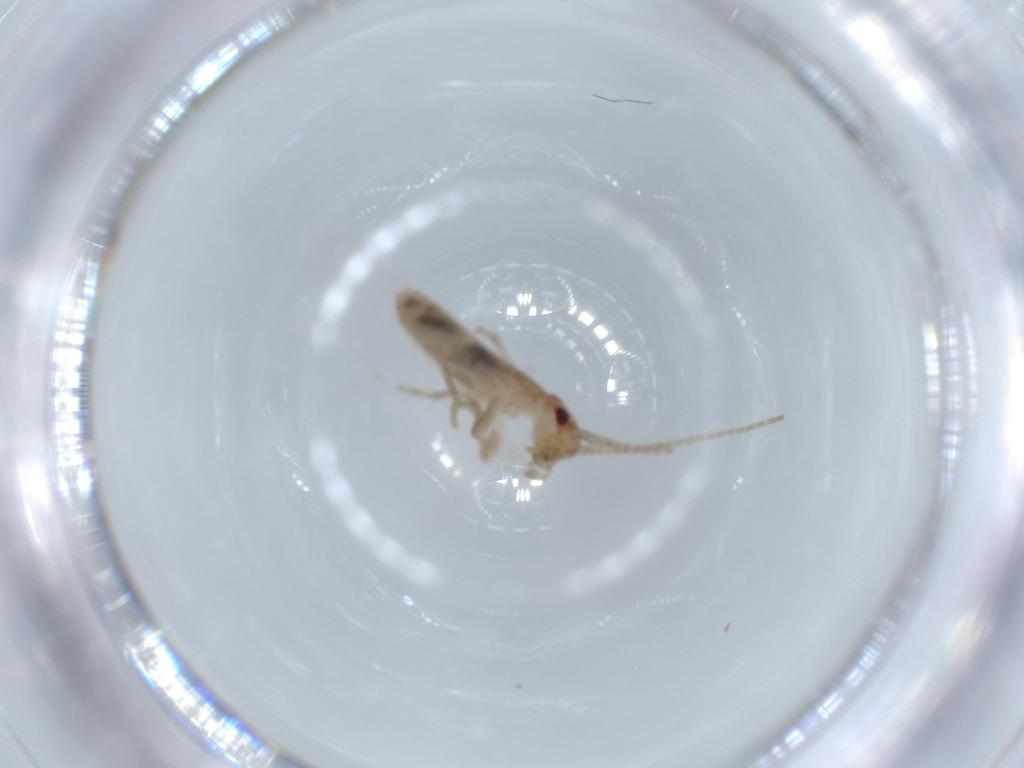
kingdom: Animalia
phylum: Arthropoda
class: Insecta
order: Orthoptera
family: Mogoplistidae
